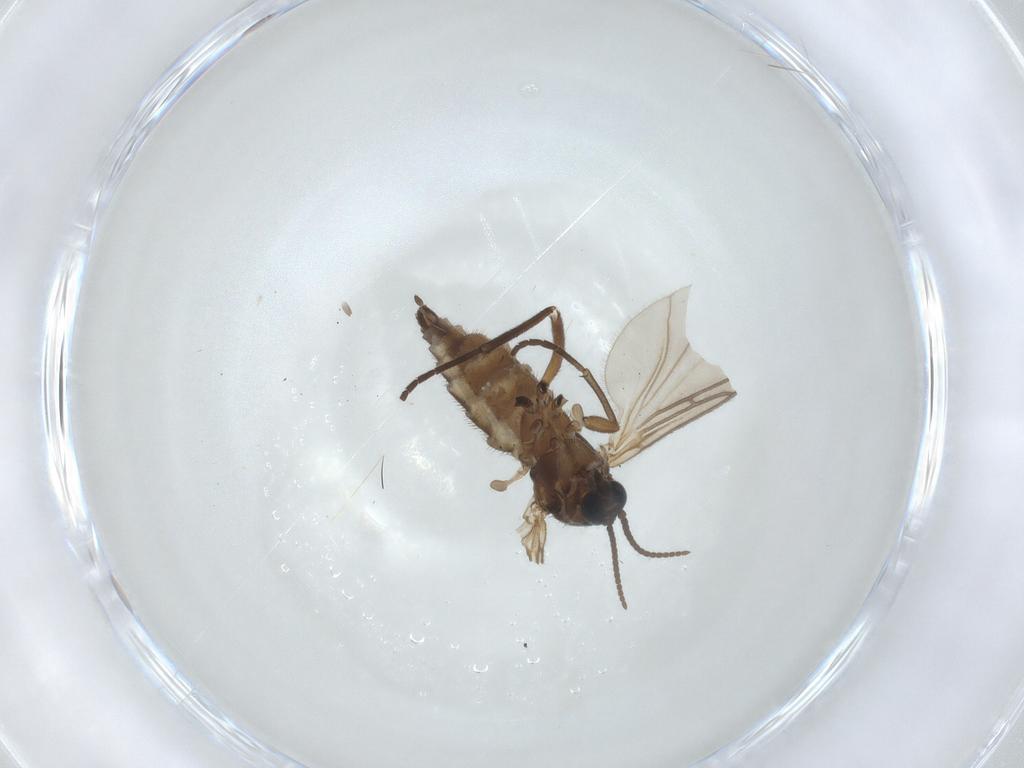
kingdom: Animalia
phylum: Arthropoda
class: Insecta
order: Diptera
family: Sciaridae
